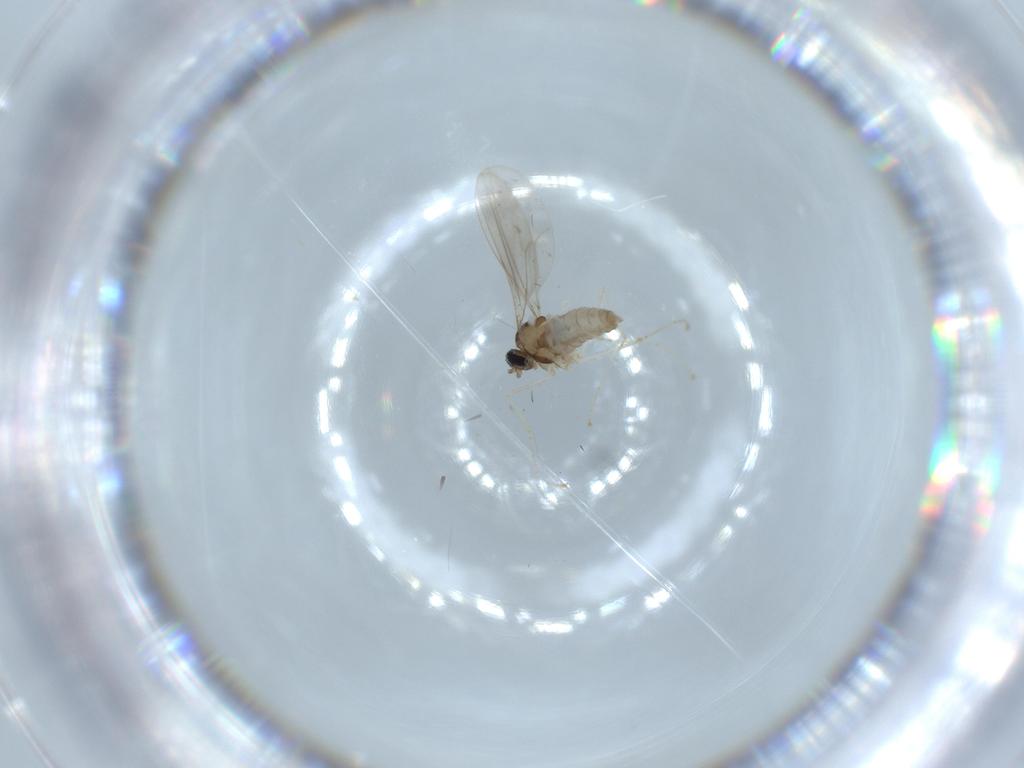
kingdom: Animalia
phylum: Arthropoda
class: Insecta
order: Diptera
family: Cecidomyiidae
